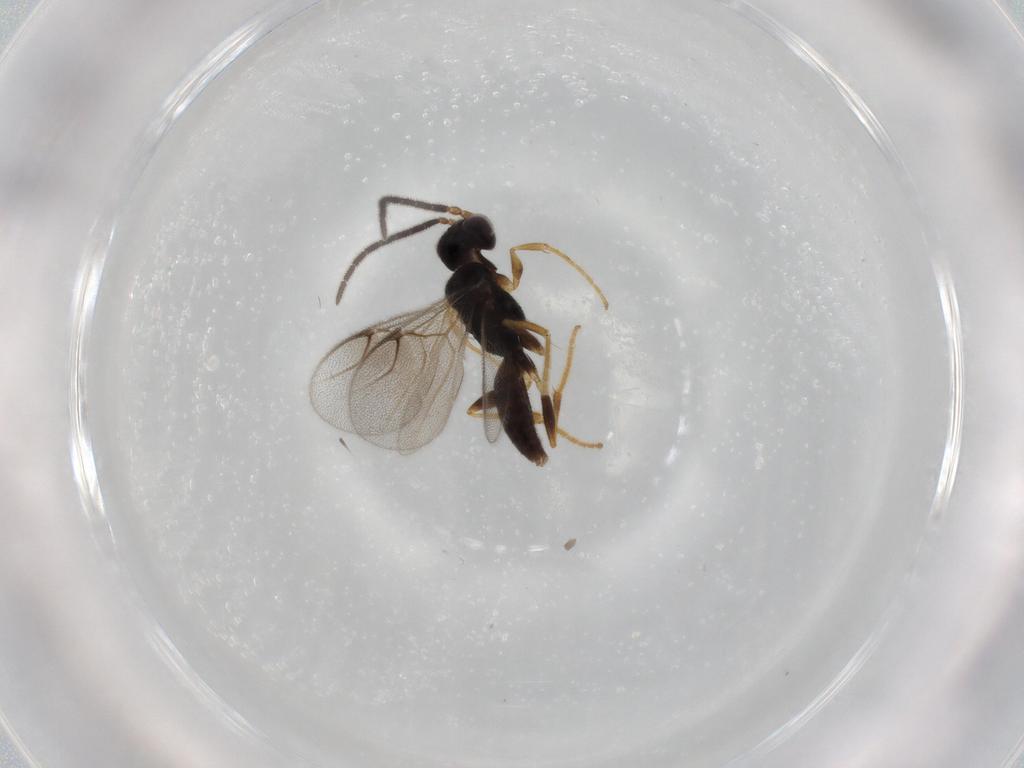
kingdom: Animalia
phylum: Arthropoda
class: Insecta
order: Hymenoptera
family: Dryinidae
